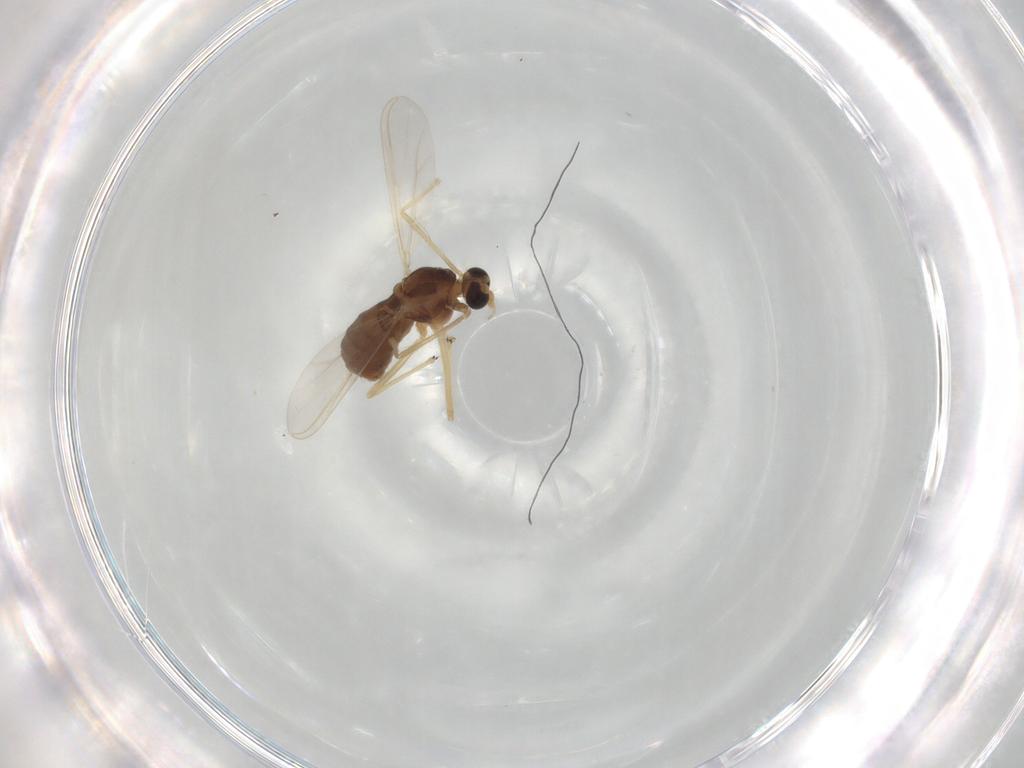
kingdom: Animalia
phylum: Arthropoda
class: Insecta
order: Diptera
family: Chironomidae
